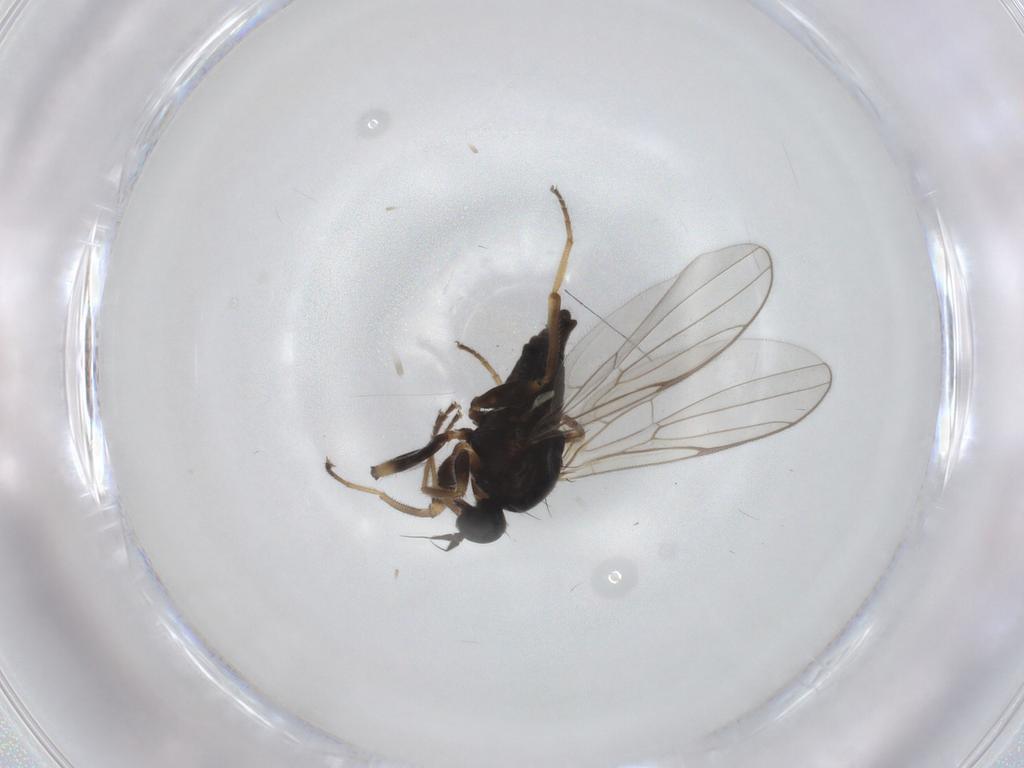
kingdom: Animalia
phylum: Arthropoda
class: Insecta
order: Diptera
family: Hybotidae
